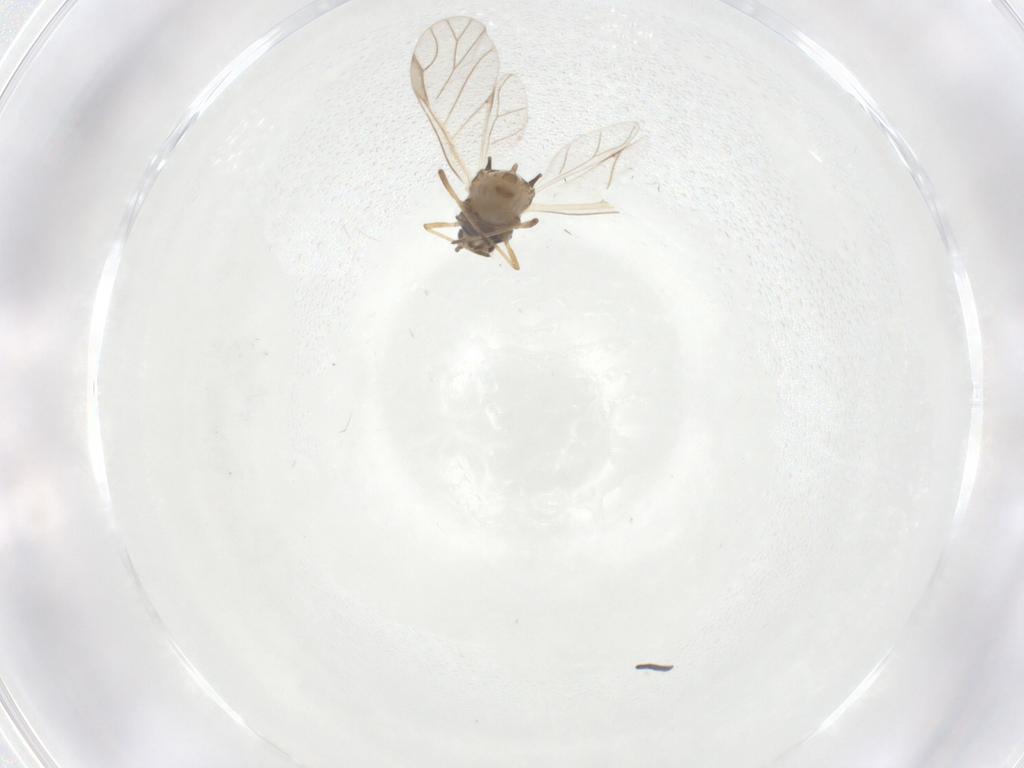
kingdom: Animalia
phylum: Arthropoda
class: Insecta
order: Hemiptera
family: Aphididae
